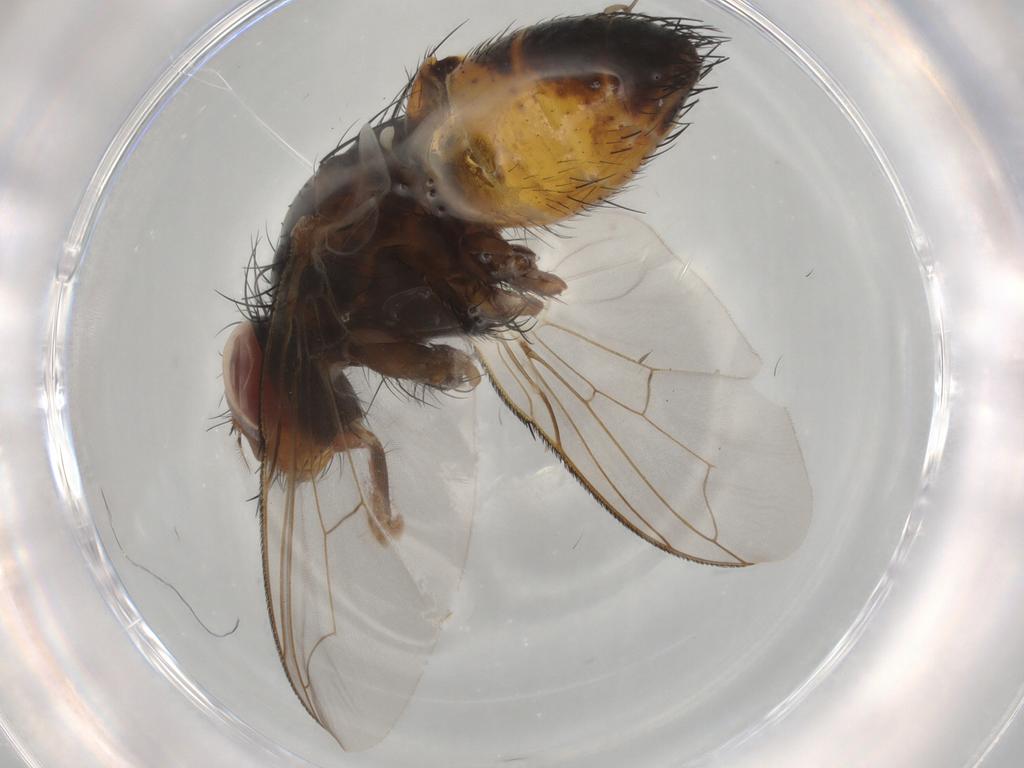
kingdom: Animalia
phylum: Arthropoda
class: Insecta
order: Diptera
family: Tachinidae
